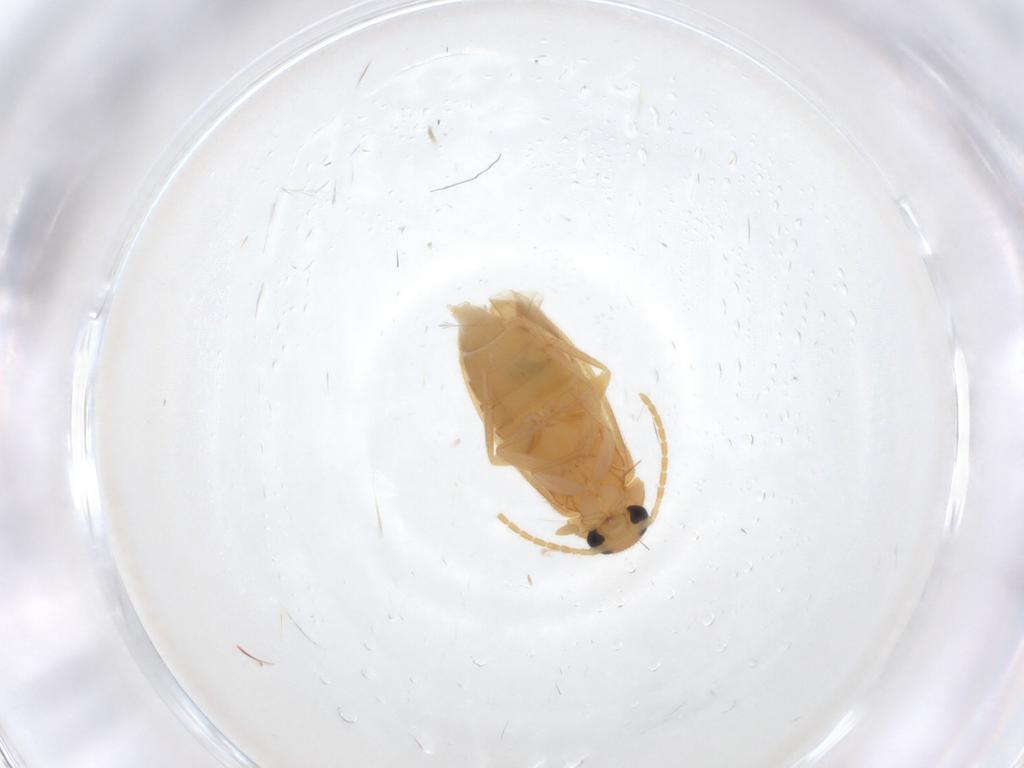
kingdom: Animalia
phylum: Arthropoda
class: Insecta
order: Coleoptera
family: Scraptiidae
